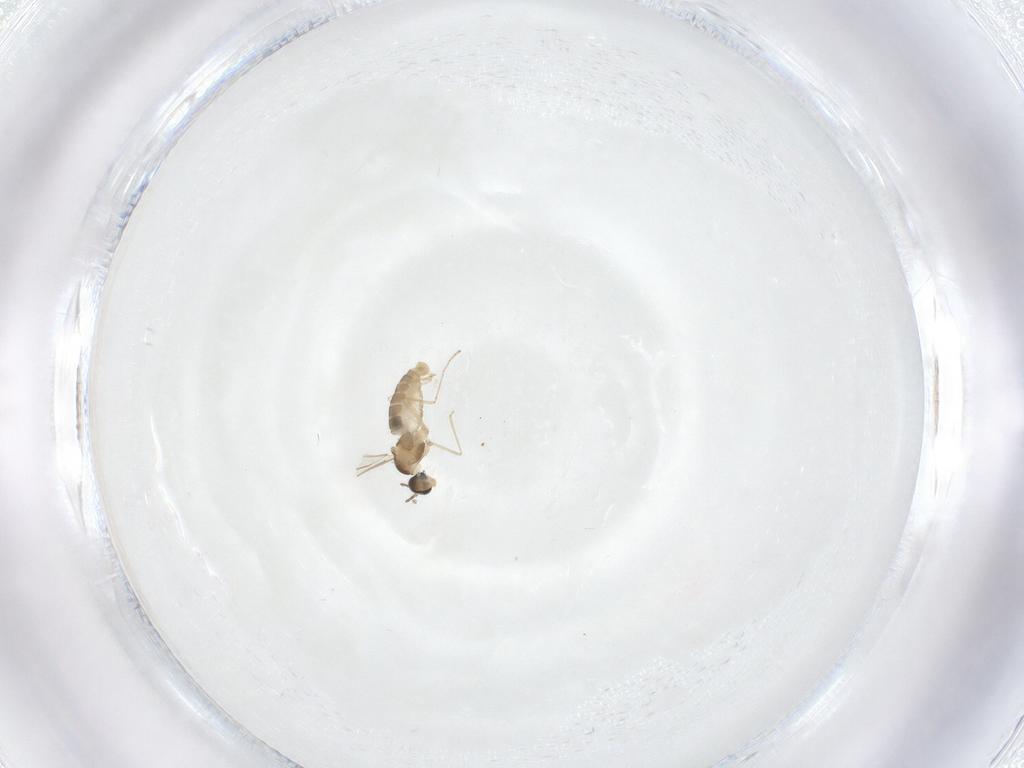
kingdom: Animalia
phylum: Arthropoda
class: Insecta
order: Diptera
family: Cecidomyiidae
